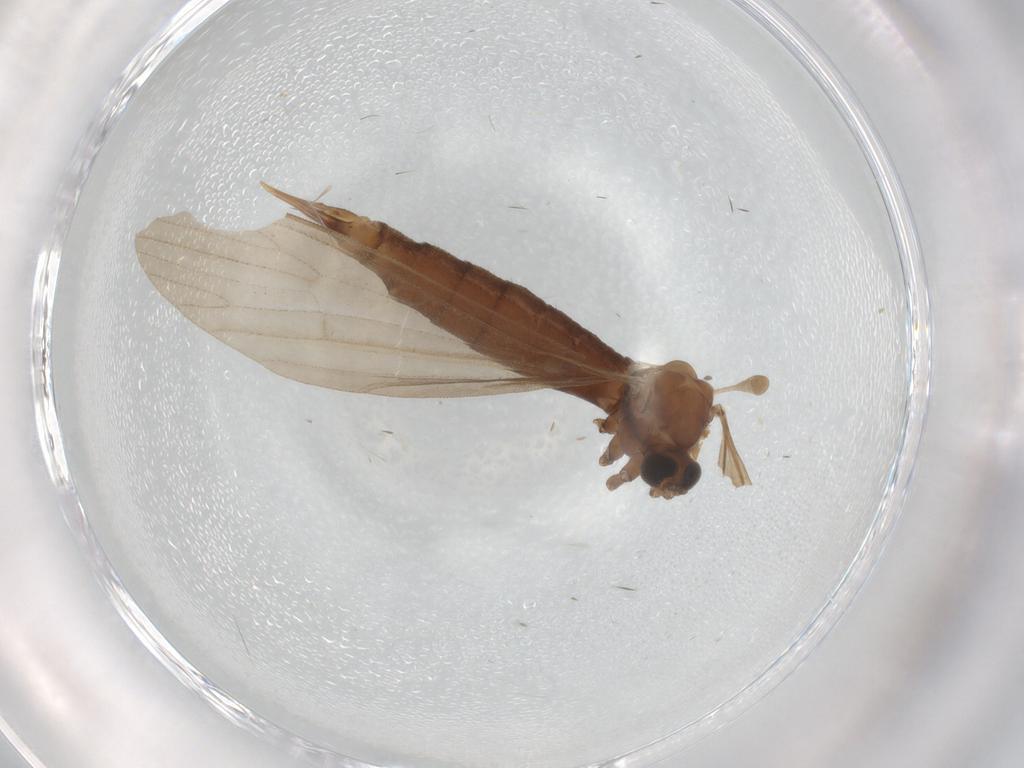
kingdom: Animalia
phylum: Arthropoda
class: Insecta
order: Diptera
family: Limoniidae
